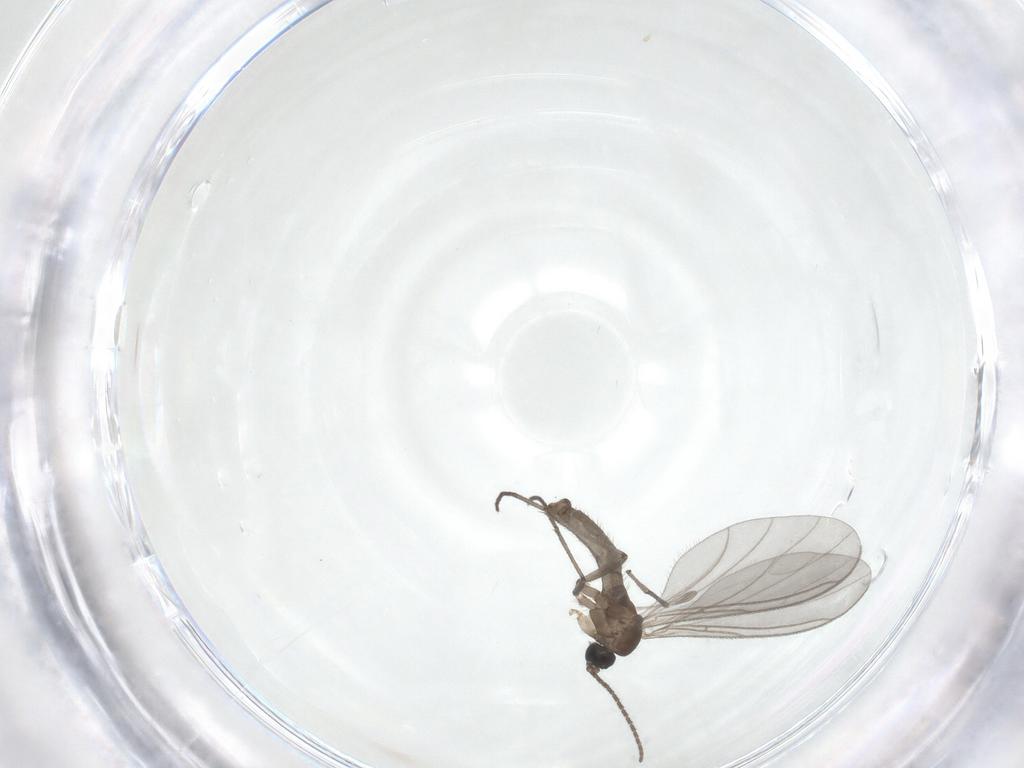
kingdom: Animalia
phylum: Arthropoda
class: Insecta
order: Diptera
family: Sciaridae
